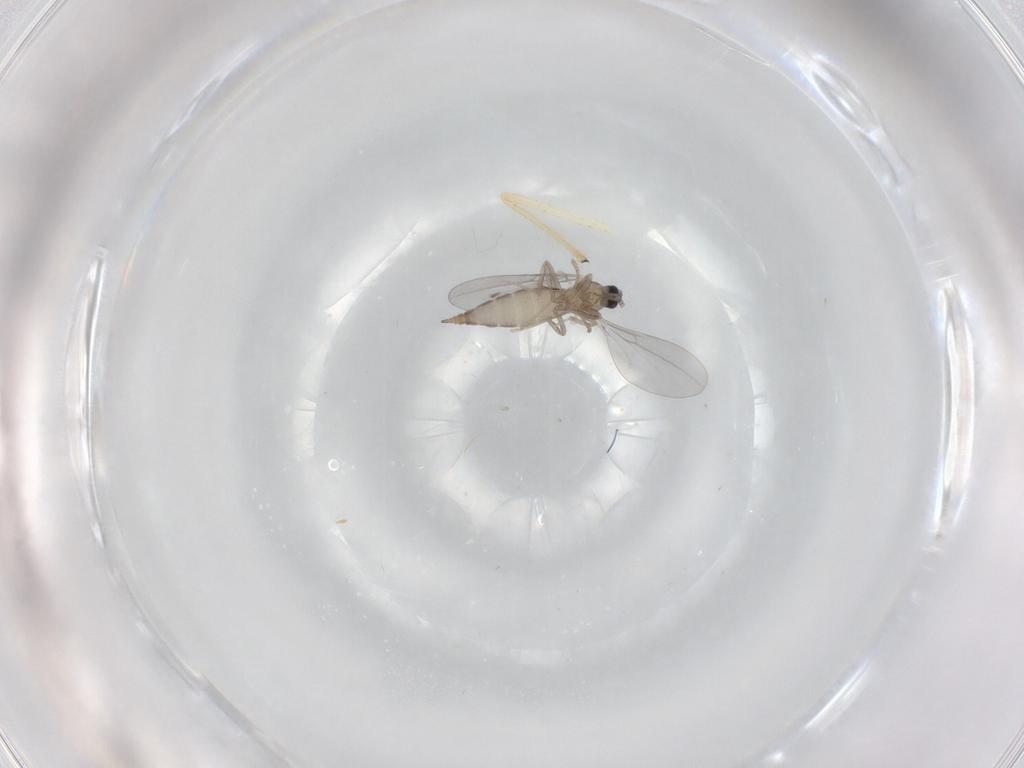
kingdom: Animalia
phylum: Arthropoda
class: Insecta
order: Diptera
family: Cecidomyiidae
